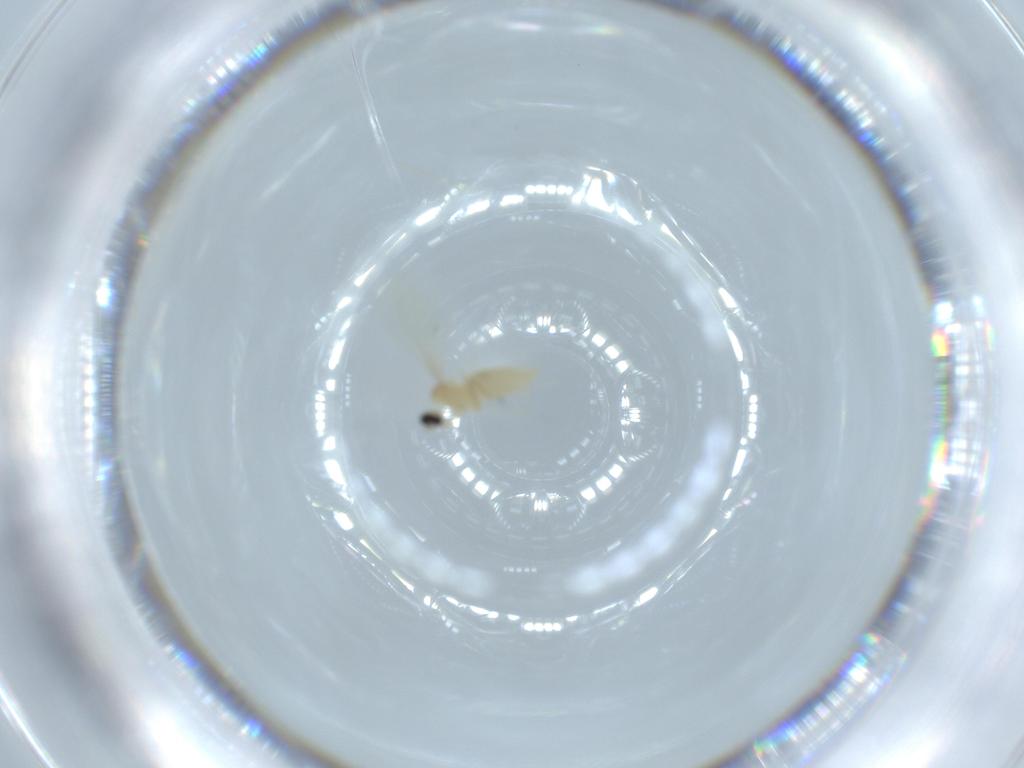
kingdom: Animalia
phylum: Arthropoda
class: Insecta
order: Diptera
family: Cecidomyiidae
